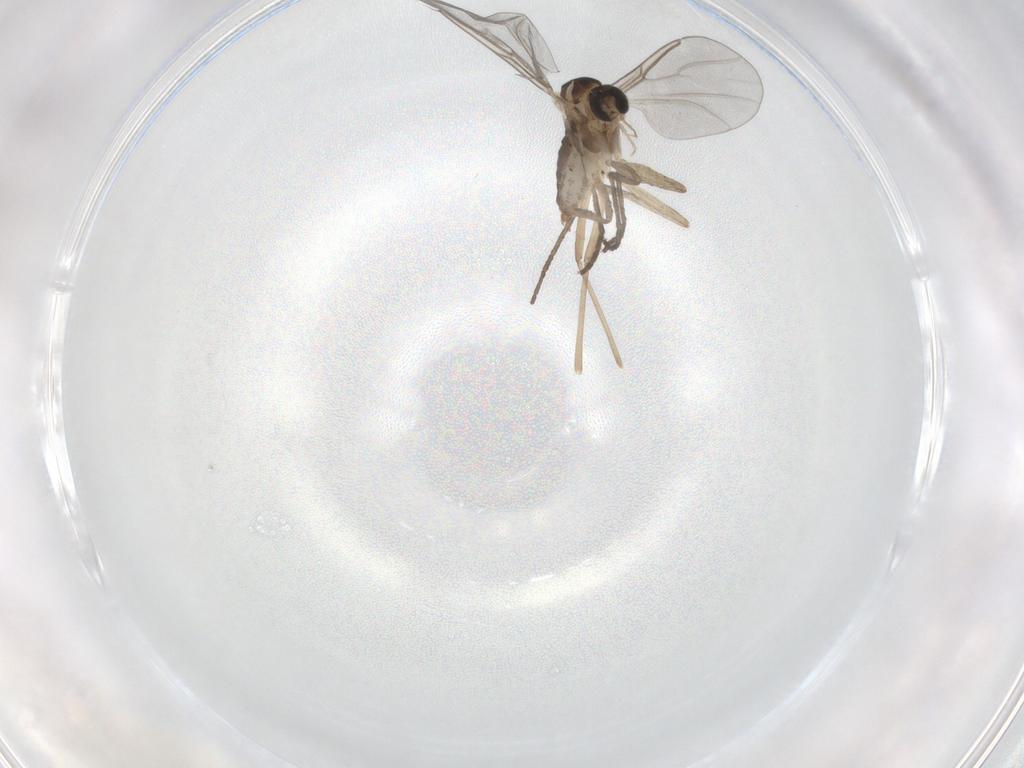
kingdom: Animalia
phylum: Arthropoda
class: Insecta
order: Diptera
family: Cecidomyiidae
